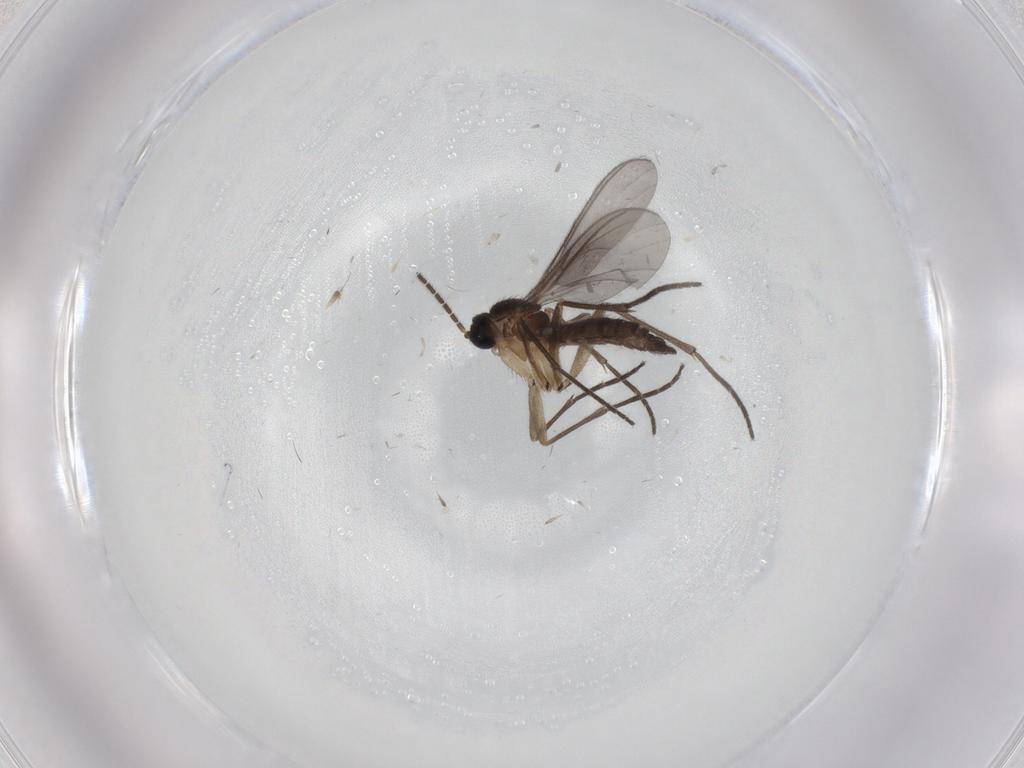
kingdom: Animalia
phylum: Arthropoda
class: Insecta
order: Diptera
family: Sciaridae
